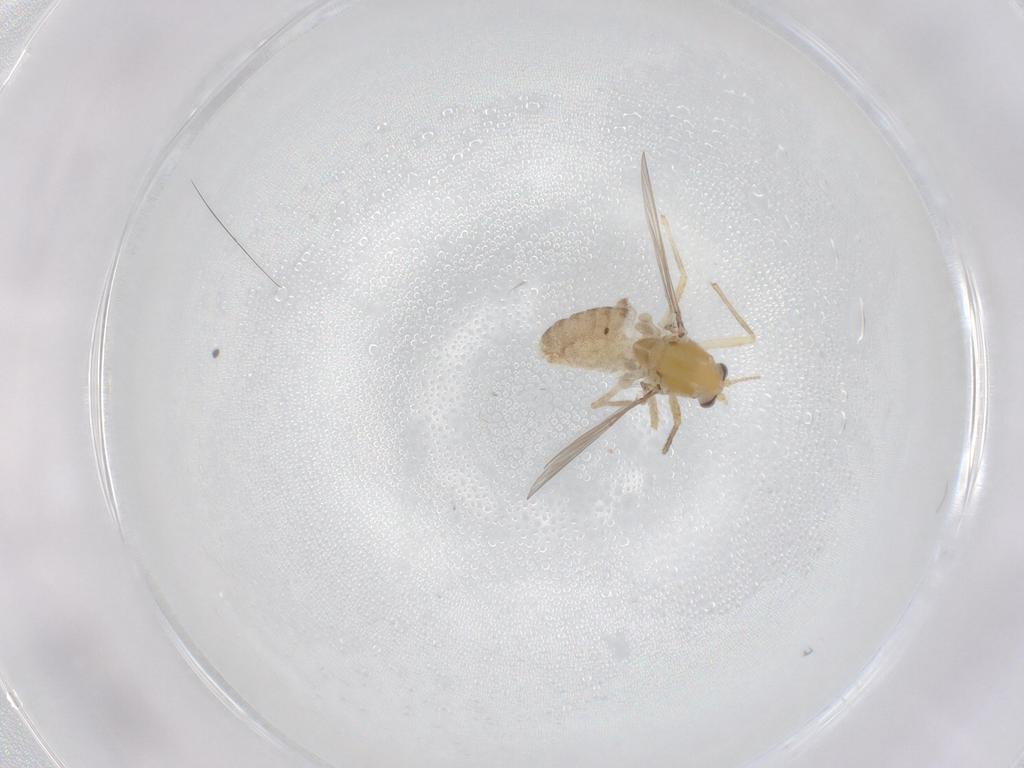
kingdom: Animalia
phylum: Arthropoda
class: Insecta
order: Diptera
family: Chironomidae
